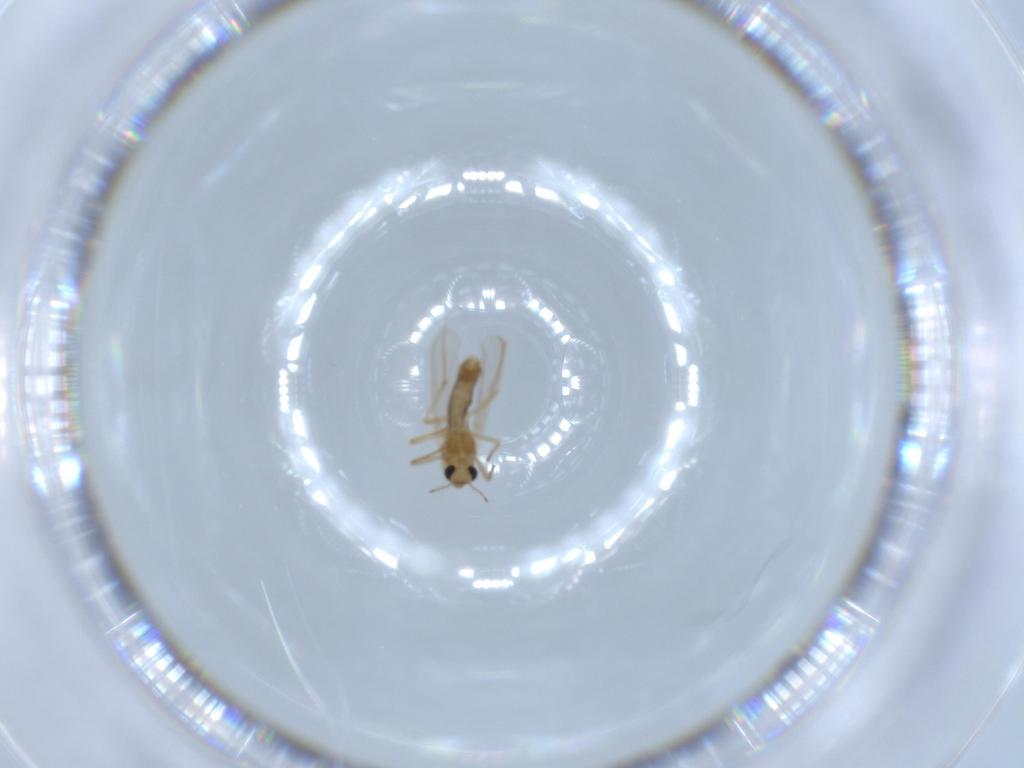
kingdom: Animalia
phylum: Arthropoda
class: Insecta
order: Diptera
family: Chironomidae
